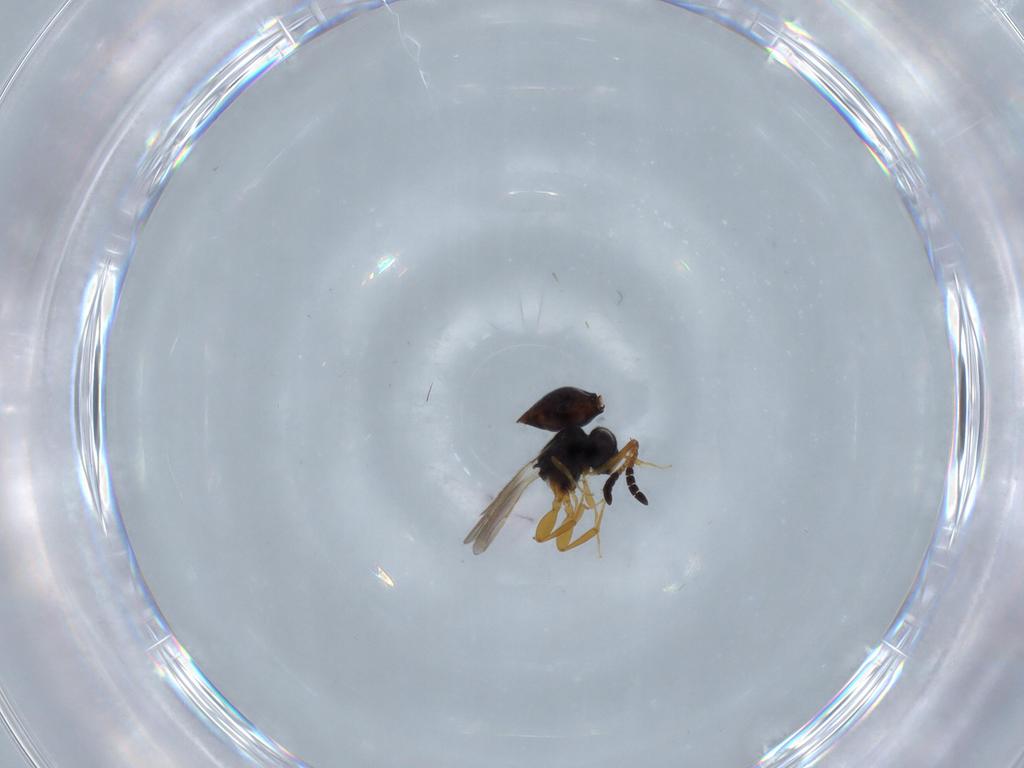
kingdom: Animalia
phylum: Arthropoda
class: Insecta
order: Hymenoptera
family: Ceraphronidae
